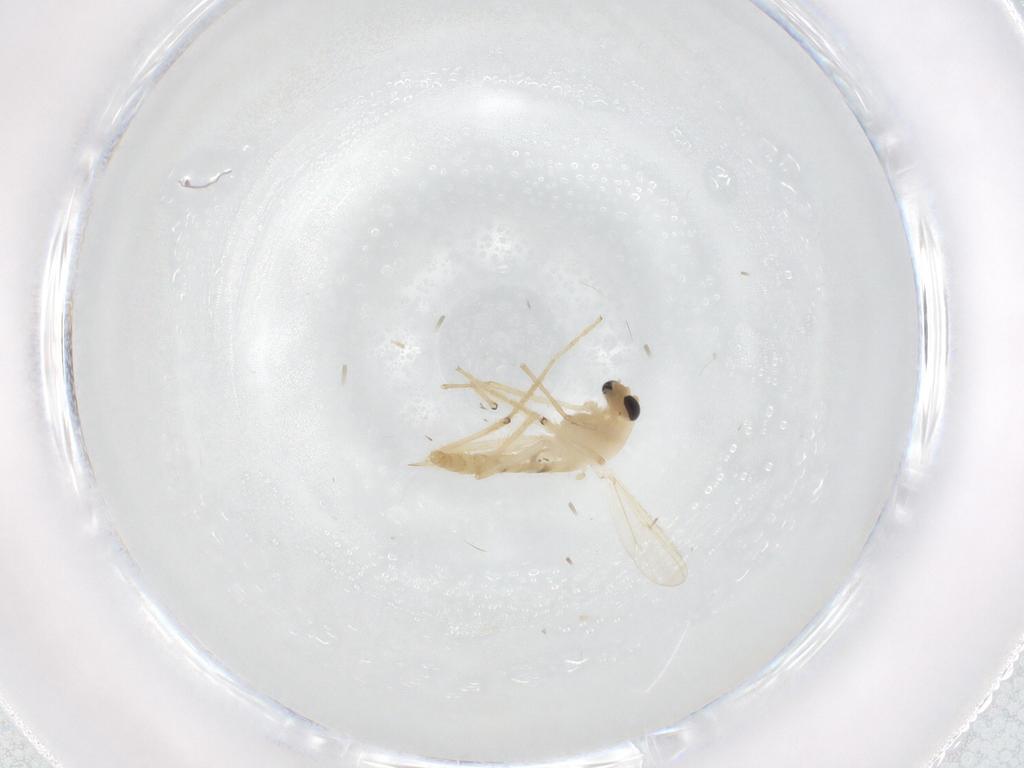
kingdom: Animalia
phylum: Arthropoda
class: Insecta
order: Diptera
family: Chironomidae
